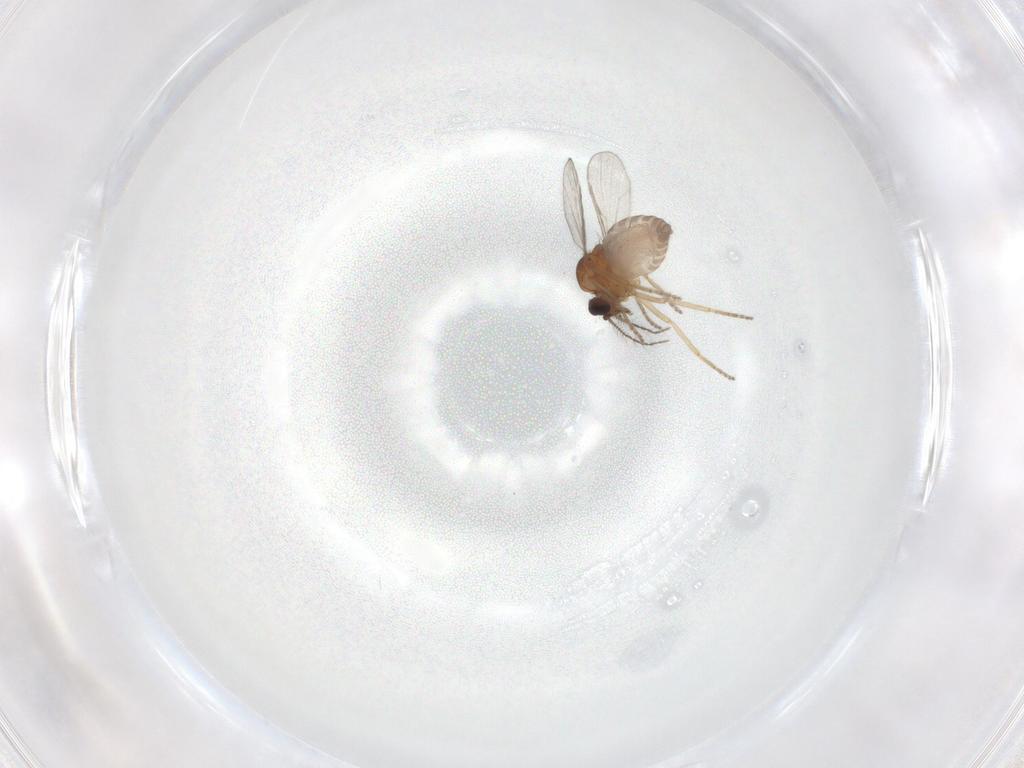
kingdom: Animalia
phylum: Arthropoda
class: Insecta
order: Diptera
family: Ceratopogonidae
